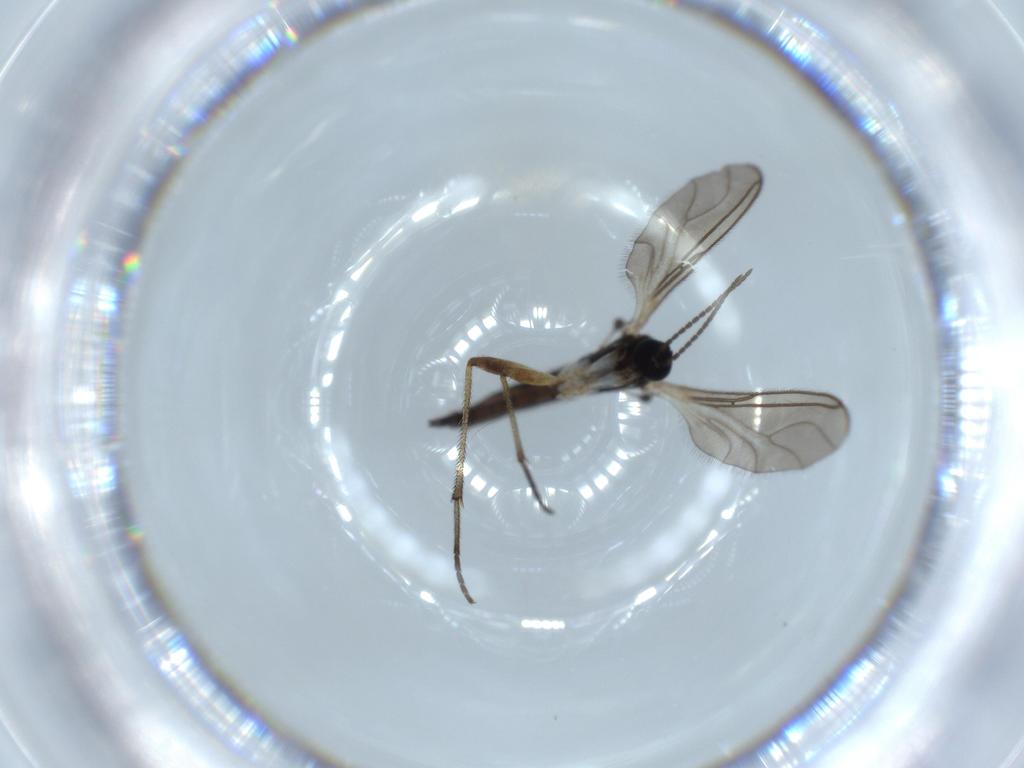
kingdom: Animalia
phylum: Arthropoda
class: Insecta
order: Diptera
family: Sciaridae
